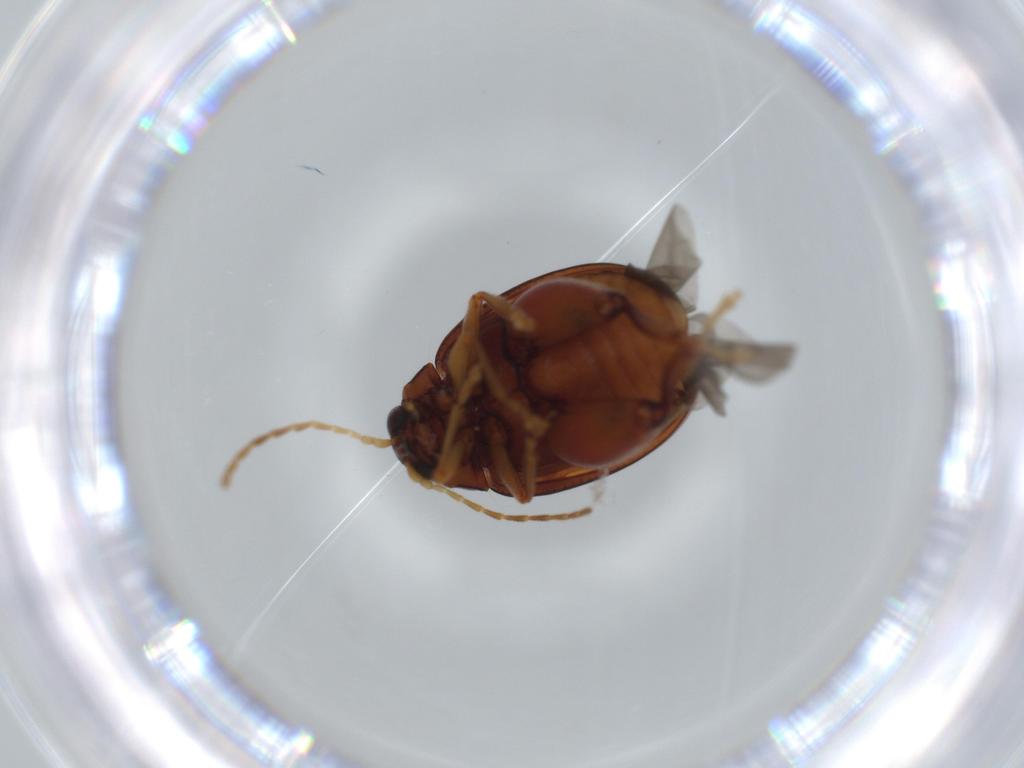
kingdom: Animalia
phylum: Arthropoda
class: Insecta
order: Coleoptera
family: Chrysomelidae
